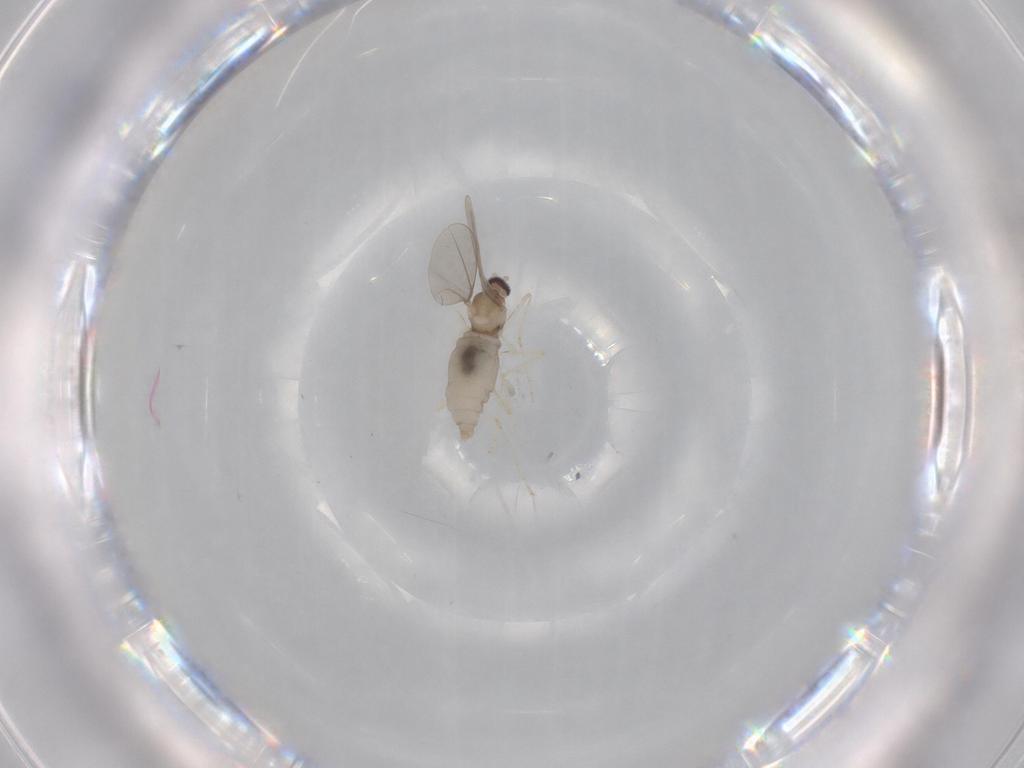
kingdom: Animalia
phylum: Arthropoda
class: Insecta
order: Diptera
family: Cecidomyiidae
